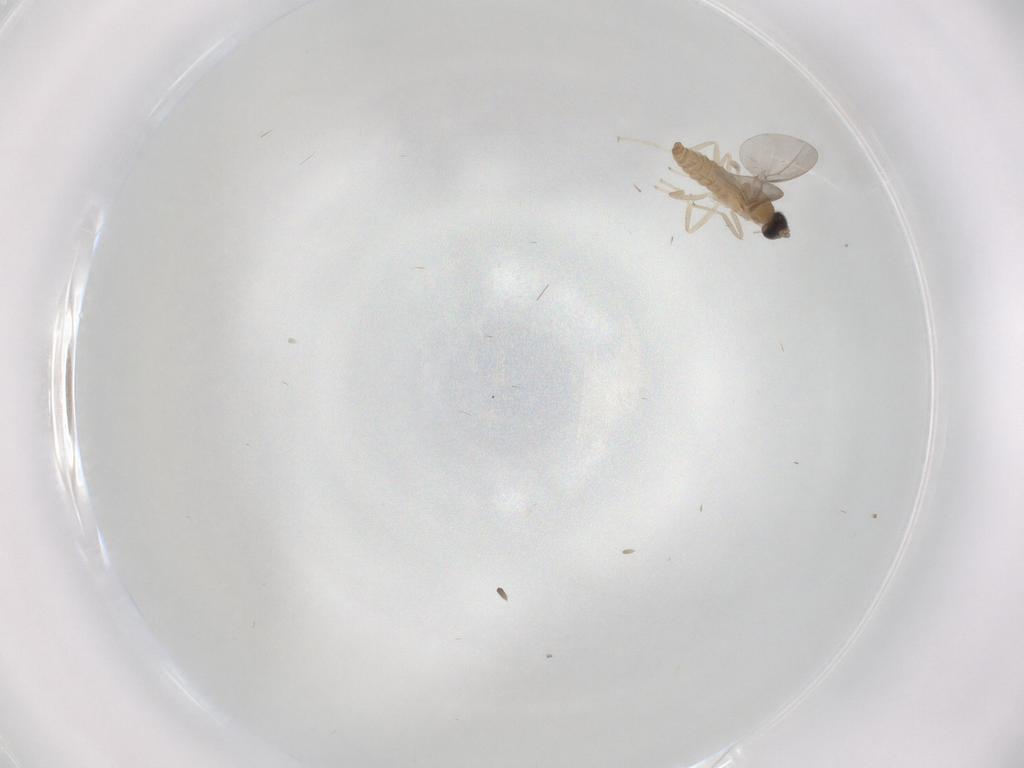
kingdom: Animalia
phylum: Arthropoda
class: Insecta
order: Diptera
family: Cecidomyiidae
